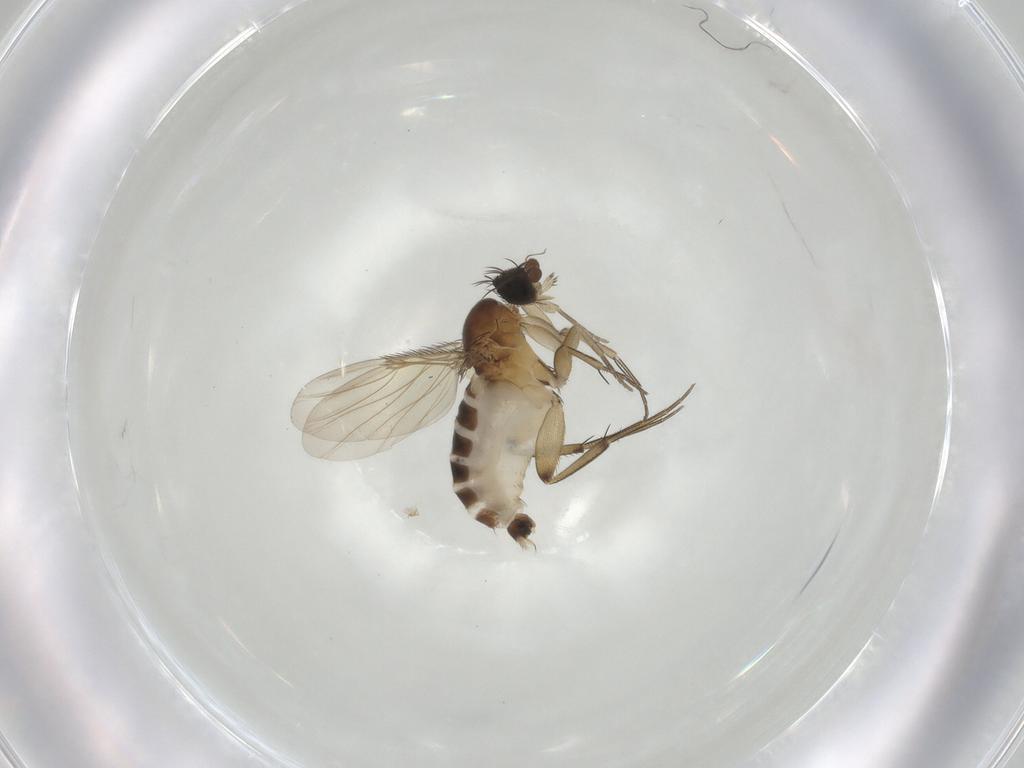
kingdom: Animalia
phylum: Arthropoda
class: Insecta
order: Diptera
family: Phoridae
